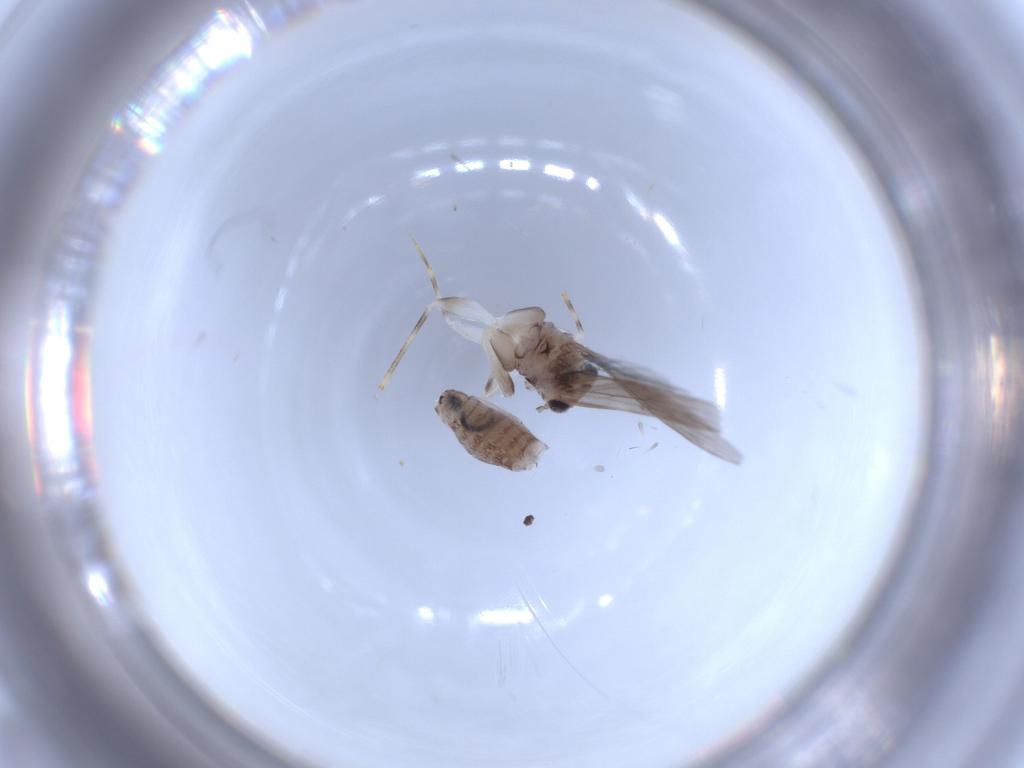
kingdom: Animalia
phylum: Arthropoda
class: Insecta
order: Psocodea
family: Lepidopsocidae
